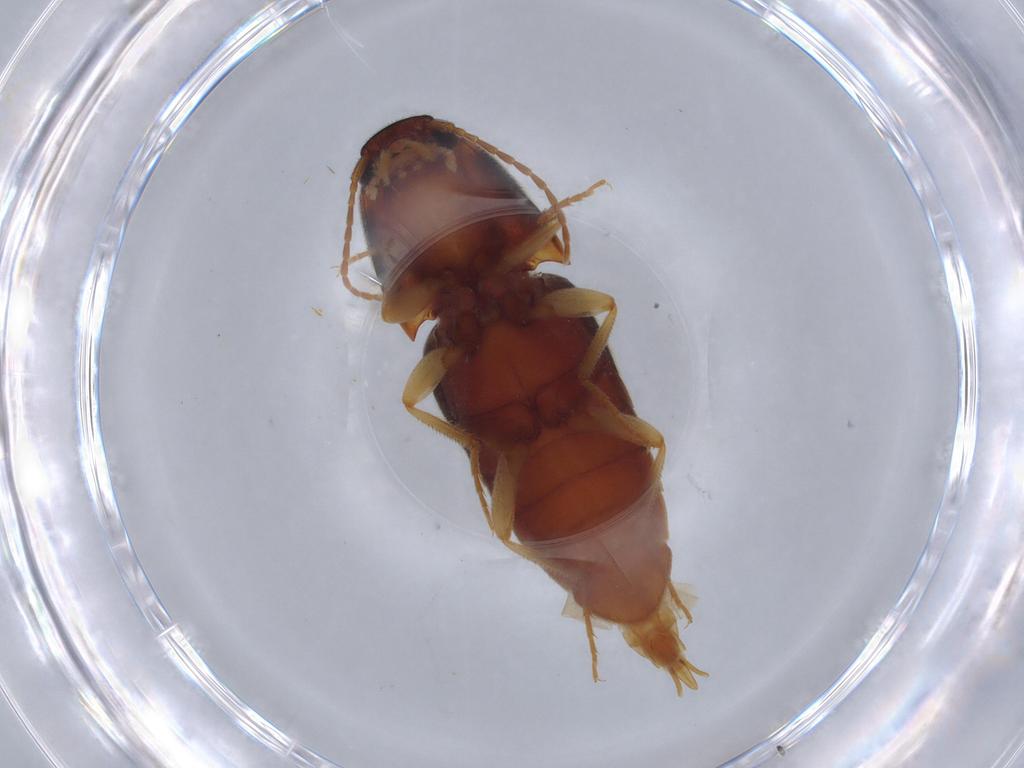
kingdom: Animalia
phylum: Arthropoda
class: Insecta
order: Coleoptera
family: Elateridae
